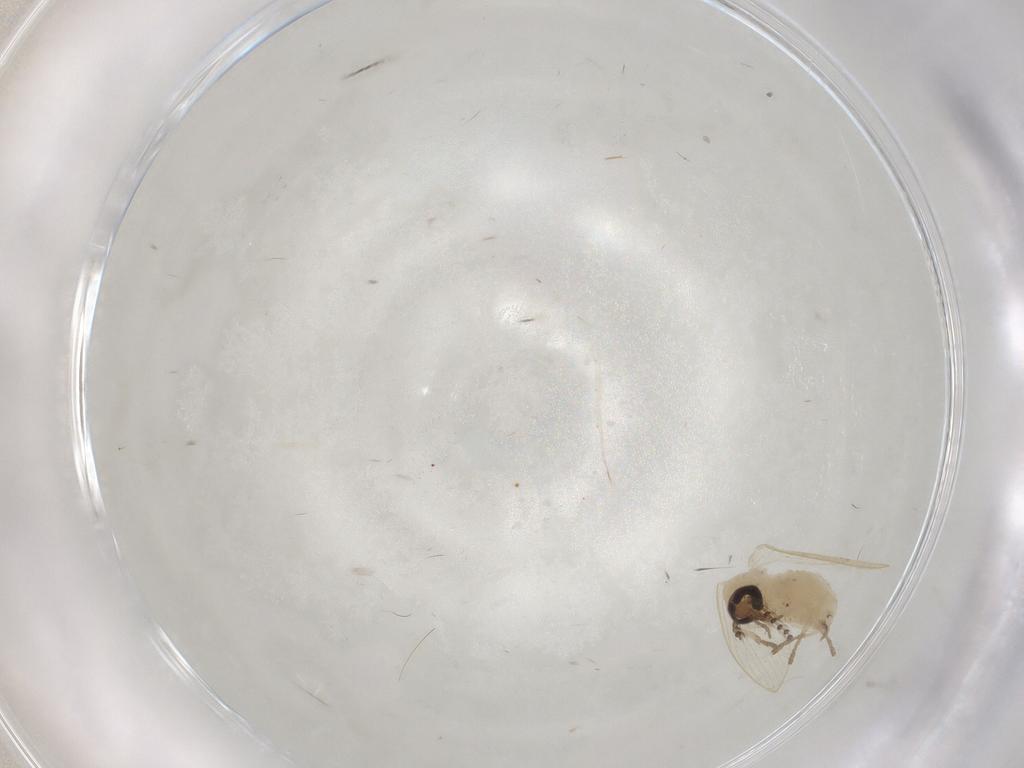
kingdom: Animalia
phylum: Arthropoda
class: Insecta
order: Diptera
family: Psychodidae
